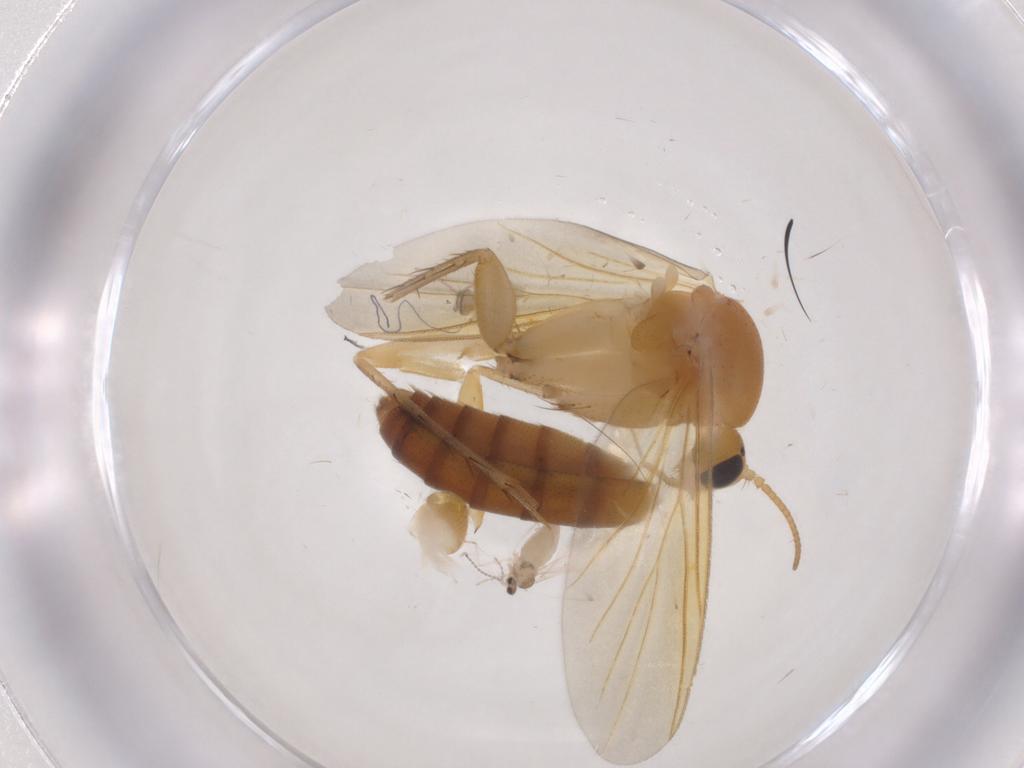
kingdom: Animalia
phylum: Arthropoda
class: Insecta
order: Diptera
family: Mycetophilidae
